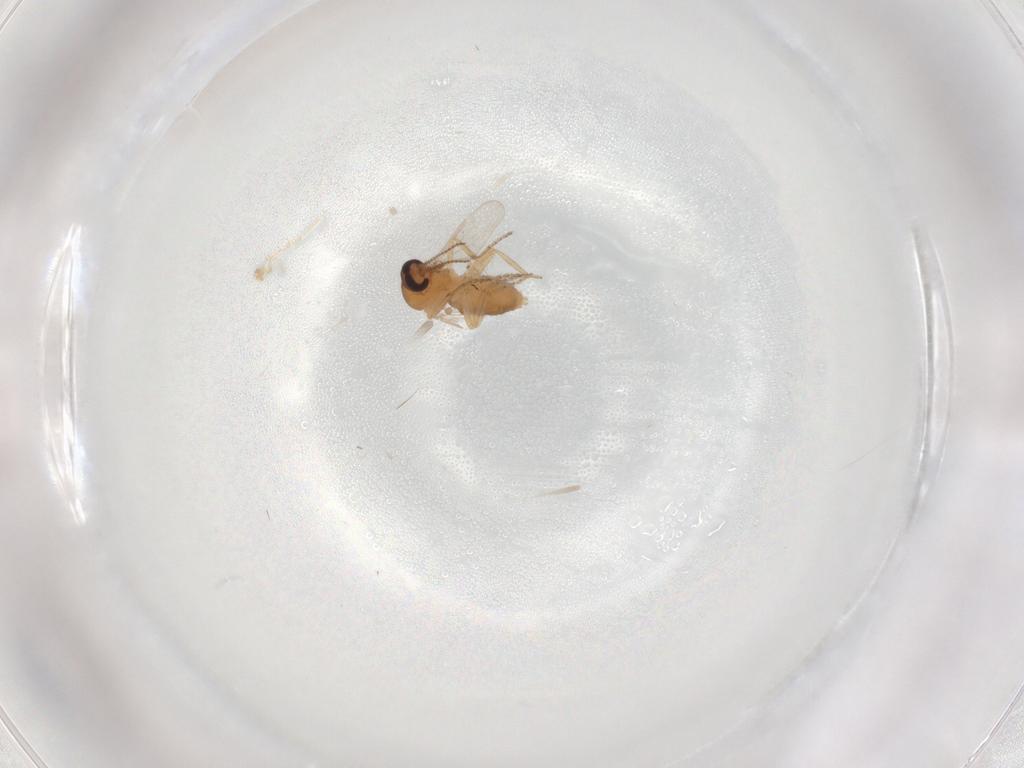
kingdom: Animalia
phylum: Arthropoda
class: Insecta
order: Diptera
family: Ceratopogonidae
